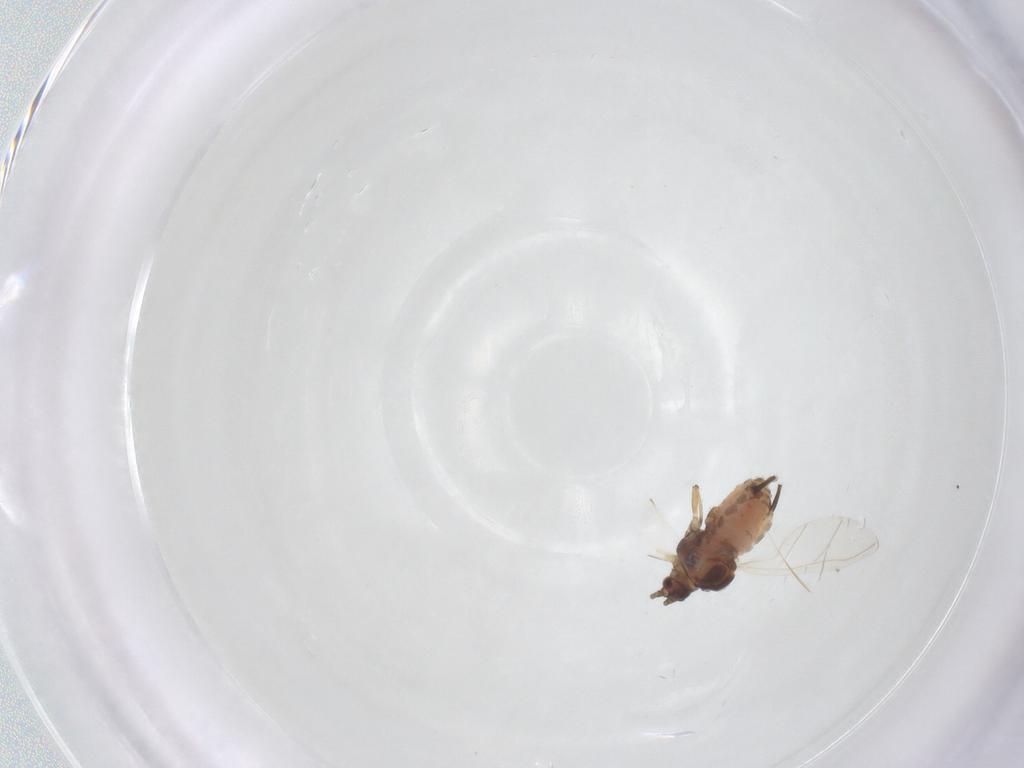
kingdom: Animalia
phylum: Arthropoda
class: Insecta
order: Hemiptera
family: Aphididae
